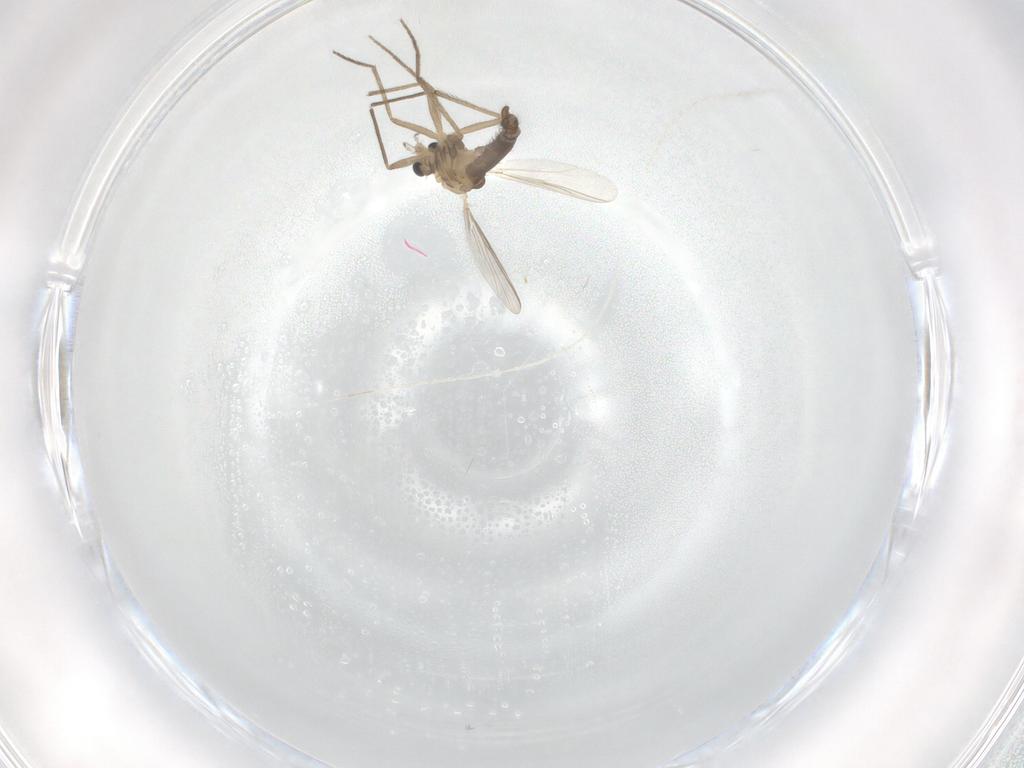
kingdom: Animalia
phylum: Arthropoda
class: Insecta
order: Diptera
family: Chironomidae
